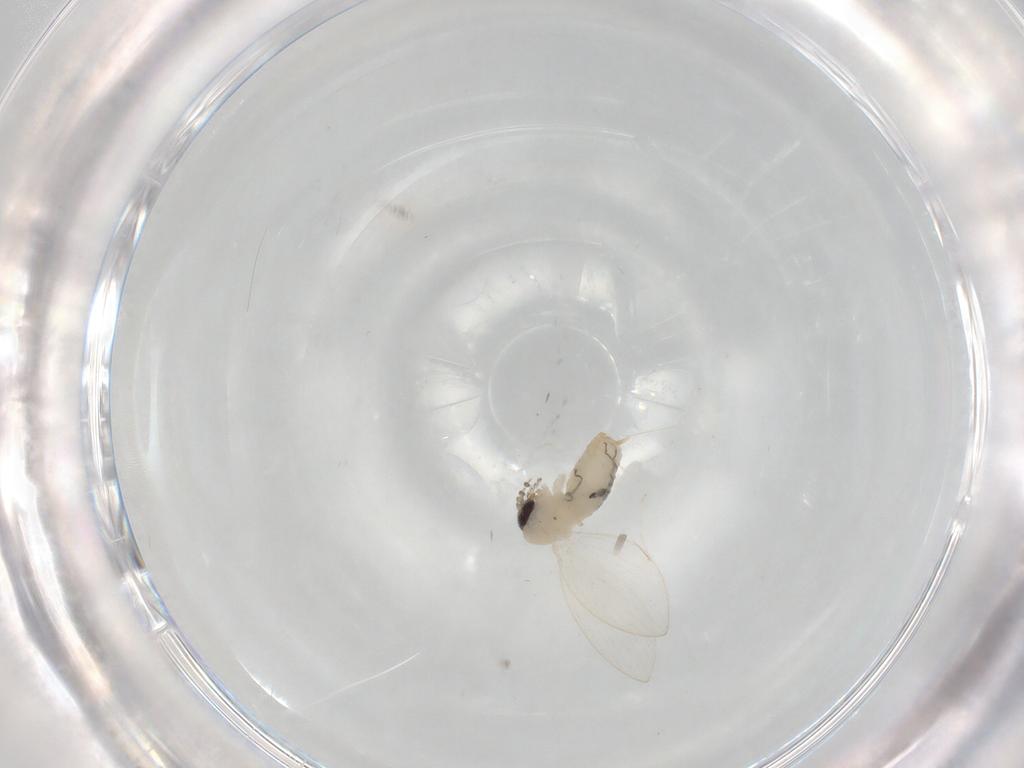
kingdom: Animalia
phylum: Arthropoda
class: Insecta
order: Diptera
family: Psychodidae
